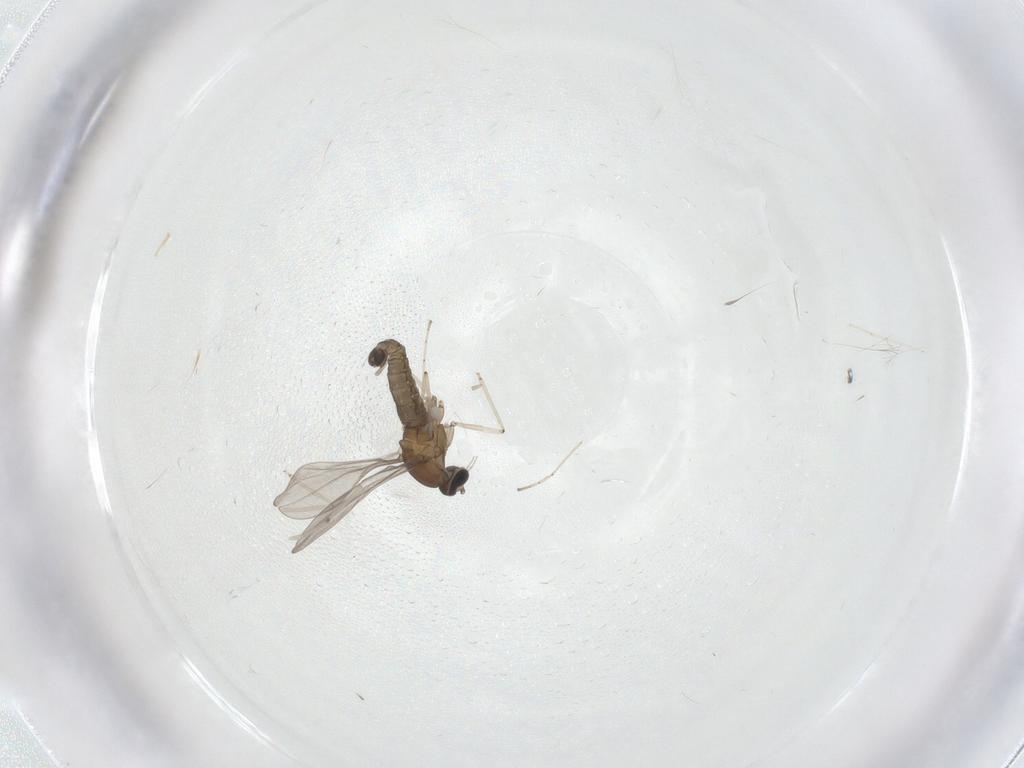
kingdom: Animalia
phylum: Arthropoda
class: Insecta
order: Diptera
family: Cecidomyiidae
